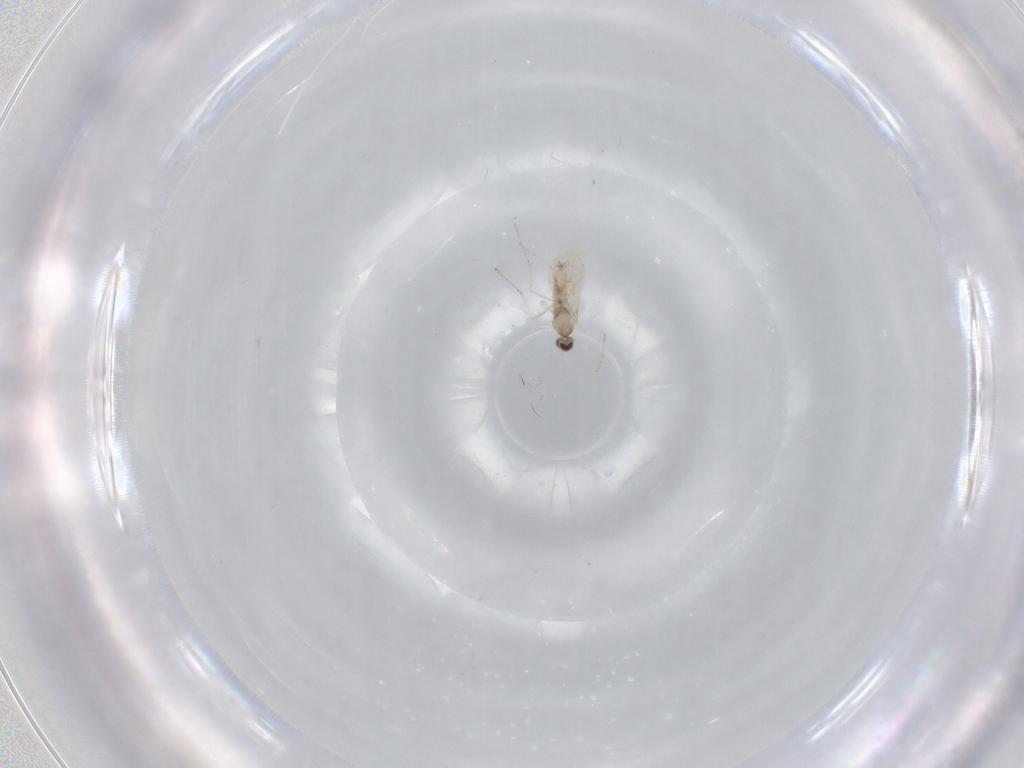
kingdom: Animalia
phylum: Arthropoda
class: Insecta
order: Diptera
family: Cecidomyiidae
